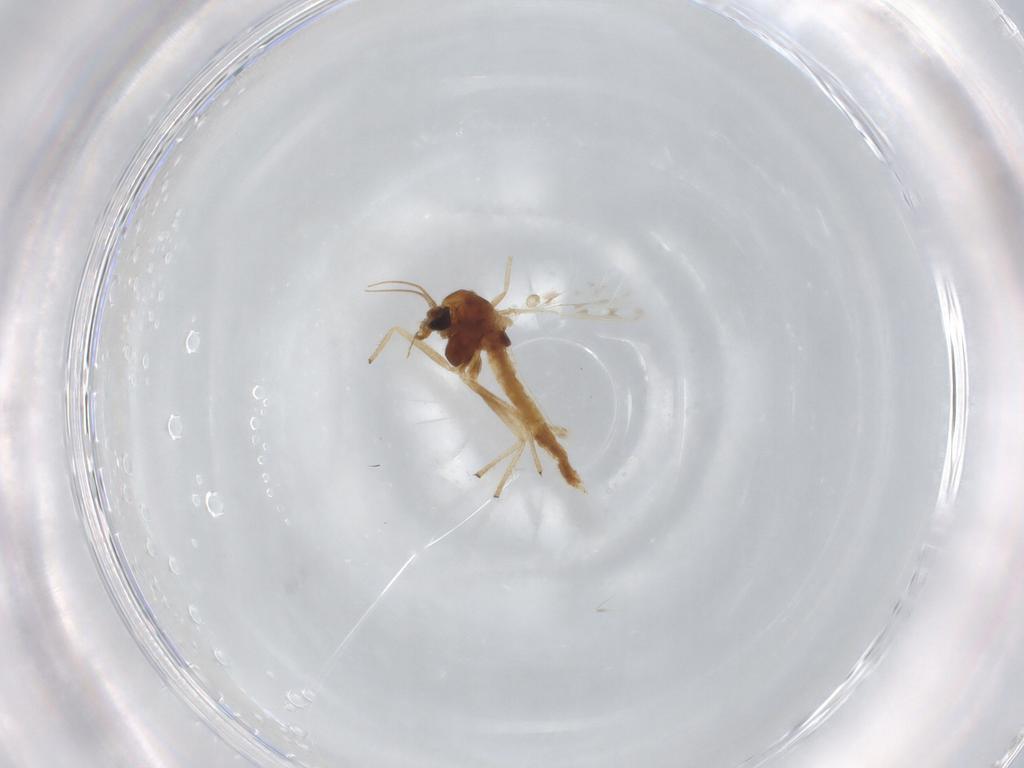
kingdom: Animalia
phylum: Arthropoda
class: Insecta
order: Diptera
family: Chironomidae
